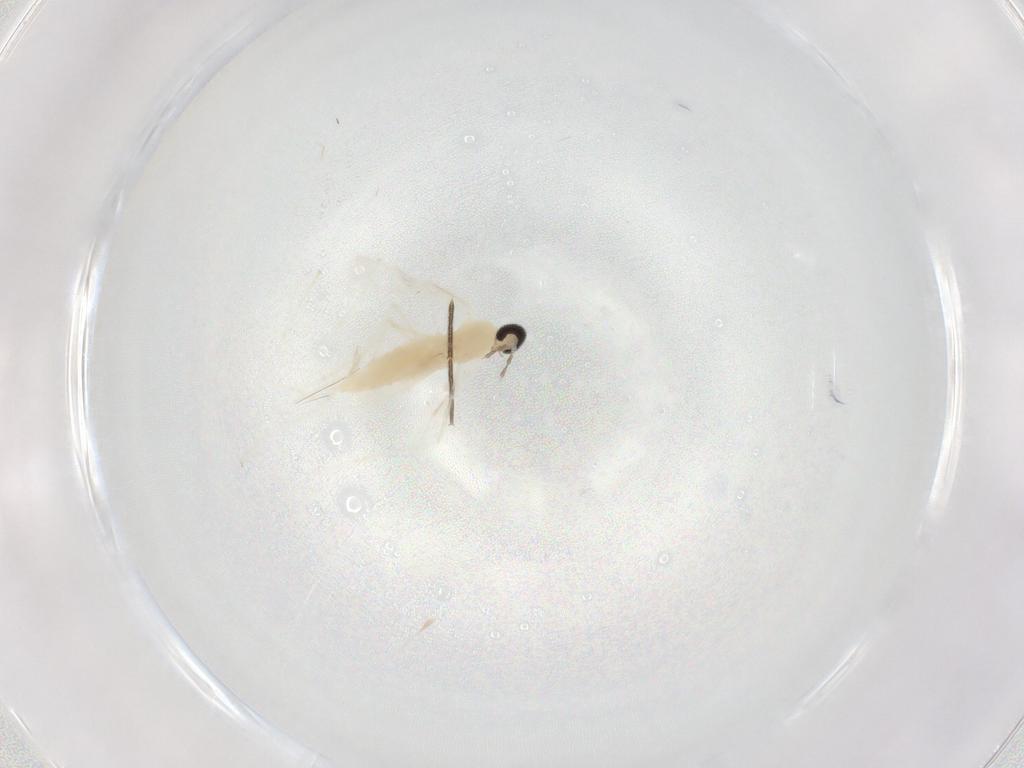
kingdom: Animalia
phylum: Arthropoda
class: Insecta
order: Diptera
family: Cecidomyiidae
